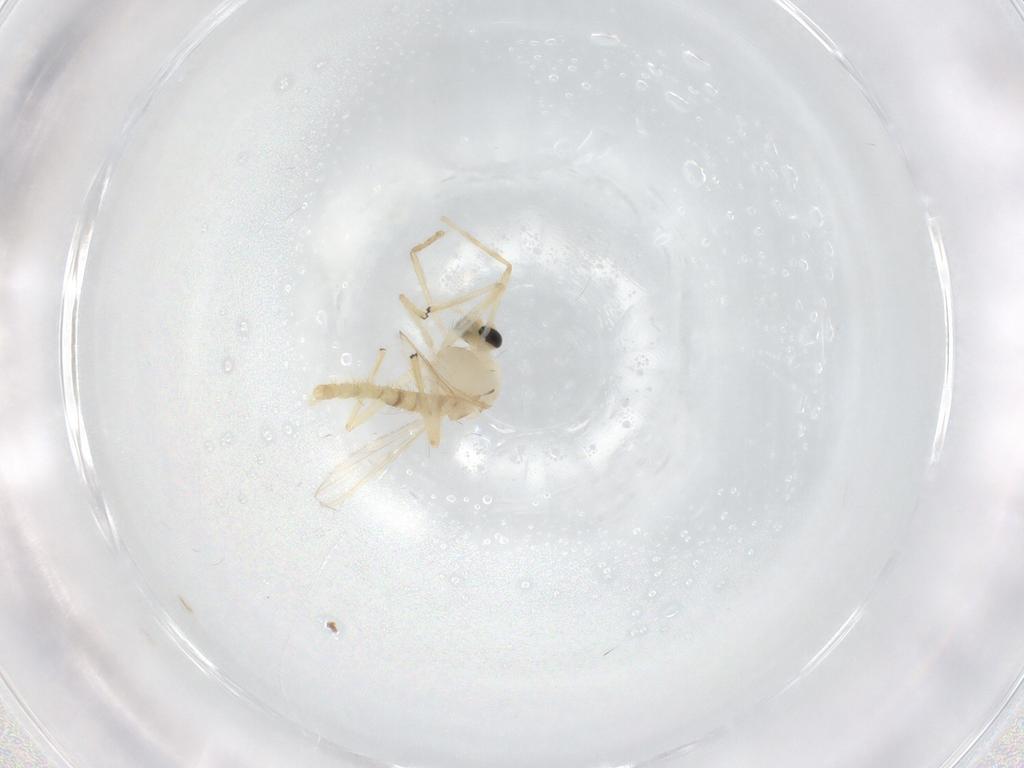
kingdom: Animalia
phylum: Arthropoda
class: Insecta
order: Diptera
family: Chironomidae
